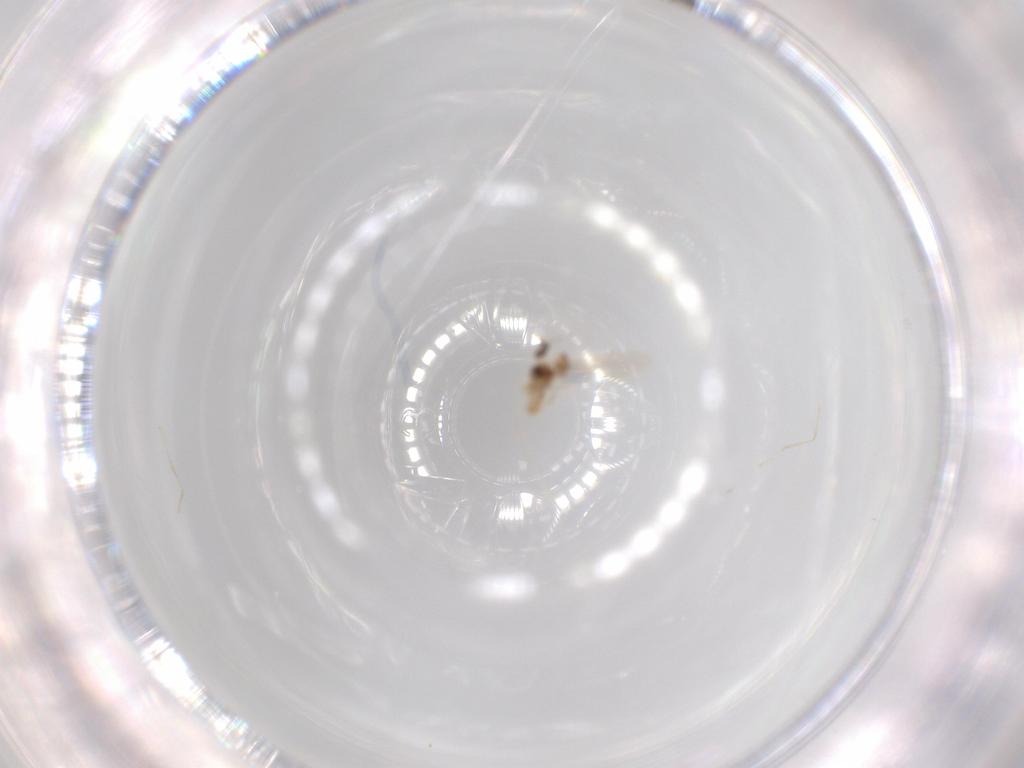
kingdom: Animalia
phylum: Arthropoda
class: Insecta
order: Diptera
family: Cecidomyiidae
